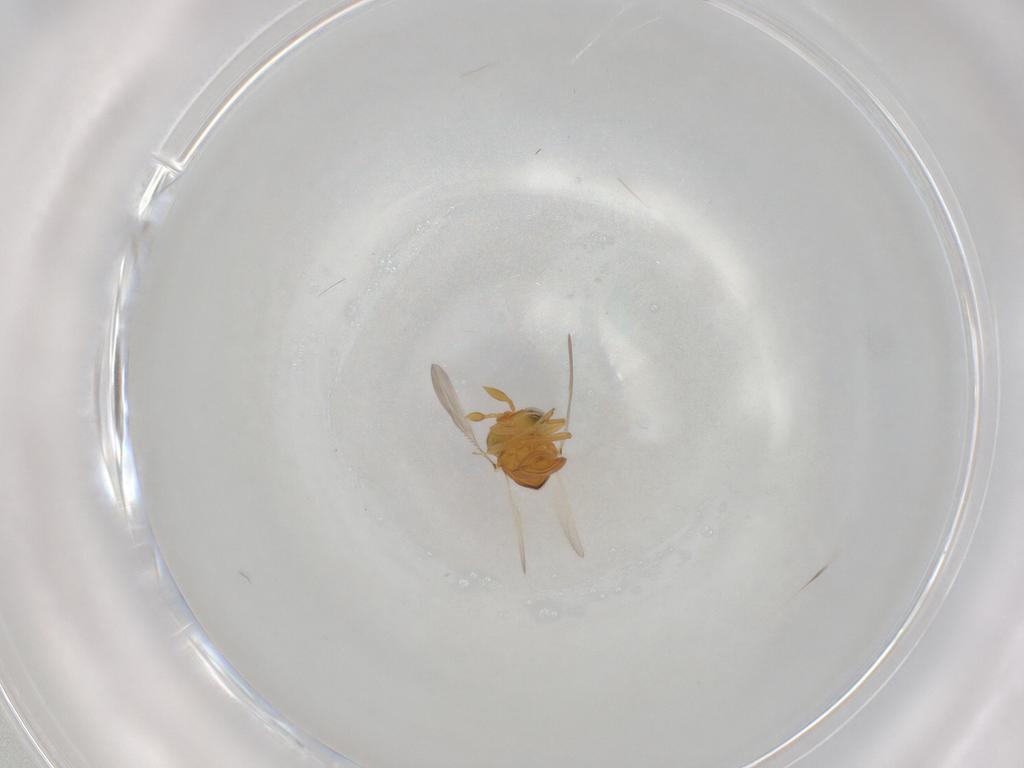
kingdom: Animalia
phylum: Arthropoda
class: Insecta
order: Hymenoptera
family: Scelionidae
